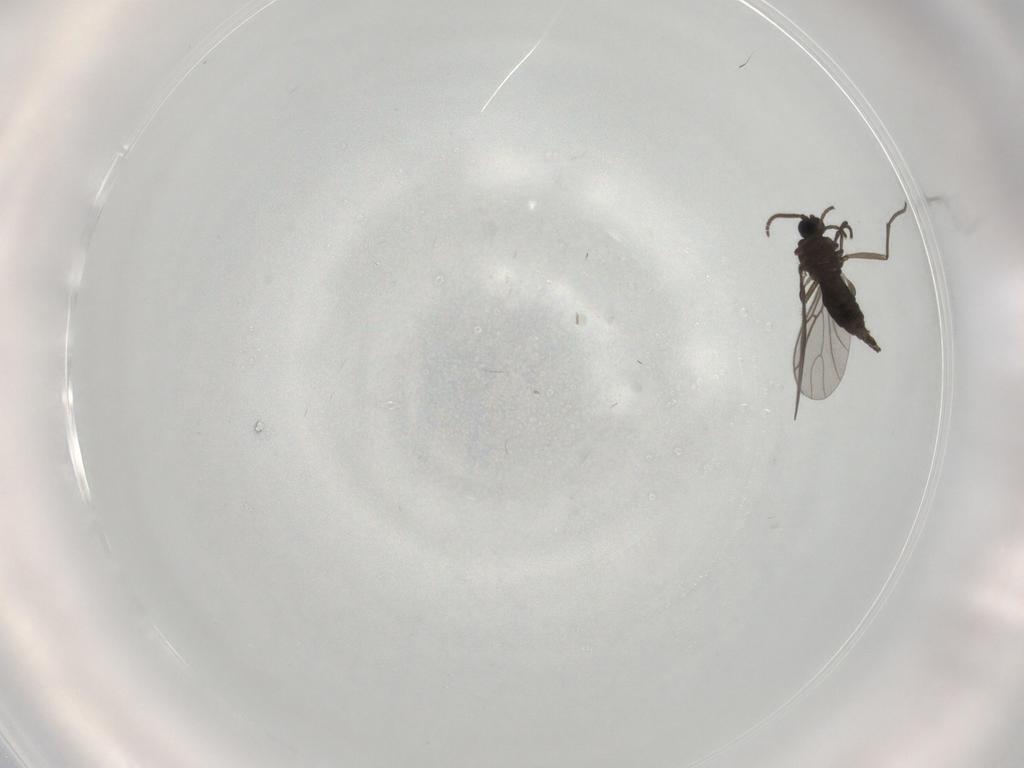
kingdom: Animalia
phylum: Arthropoda
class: Insecta
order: Diptera
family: Sciaridae
